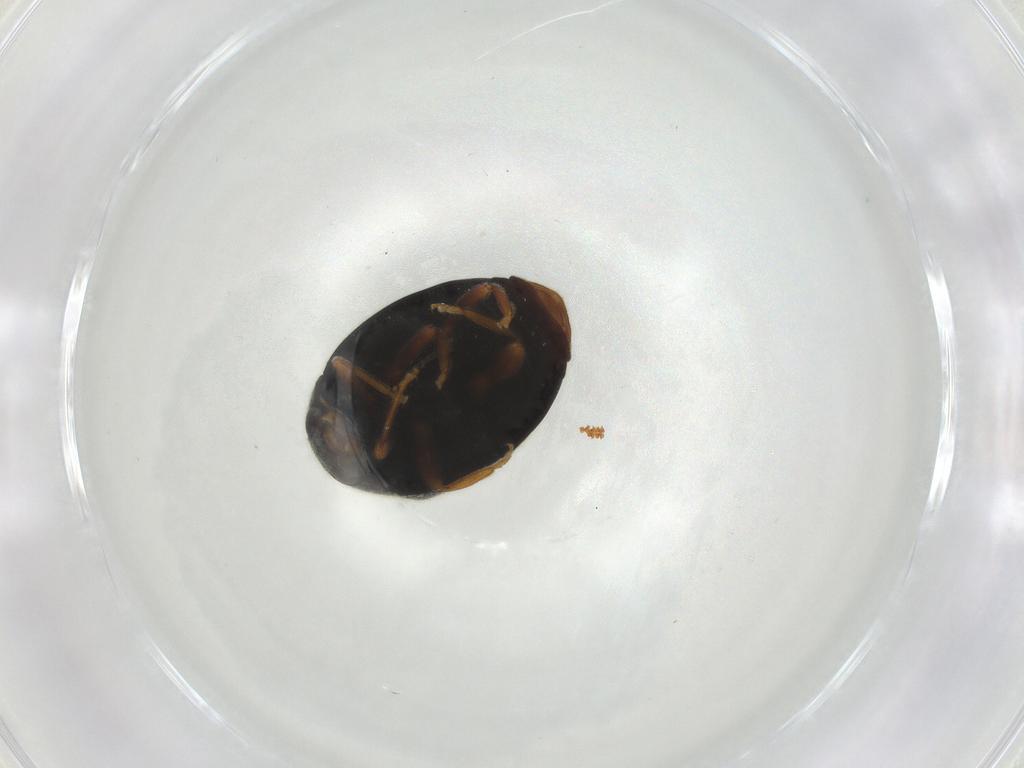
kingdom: Animalia
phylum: Arthropoda
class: Insecta
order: Coleoptera
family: Coccinellidae
